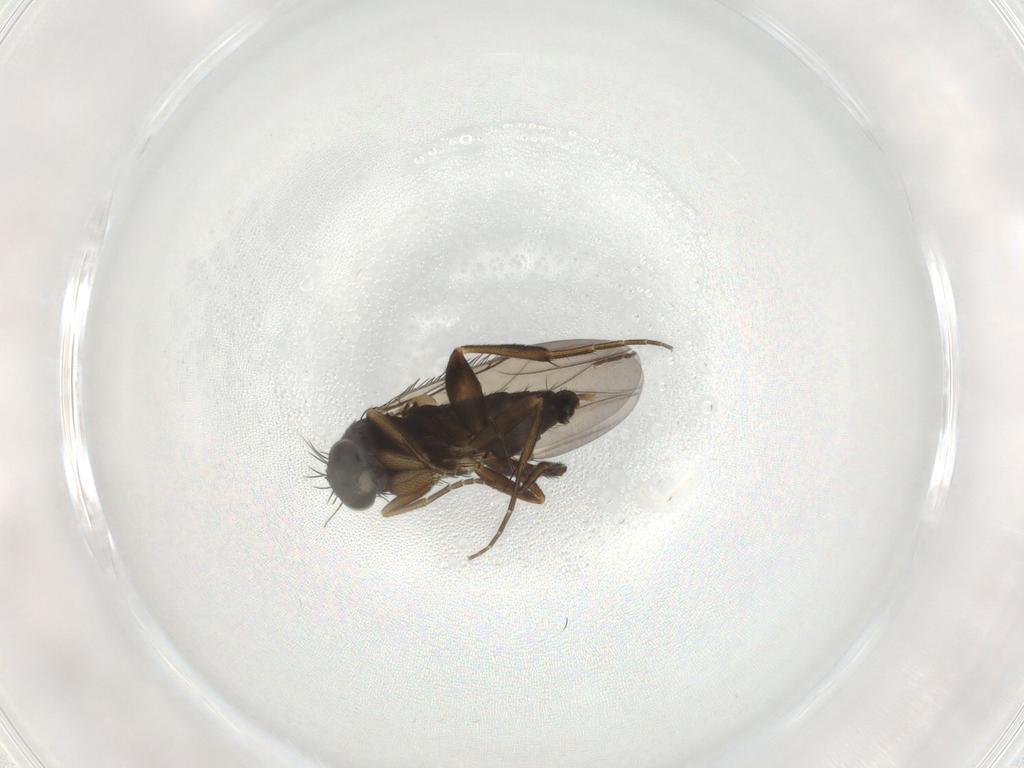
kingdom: Animalia
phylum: Arthropoda
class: Insecta
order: Diptera
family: Phoridae
